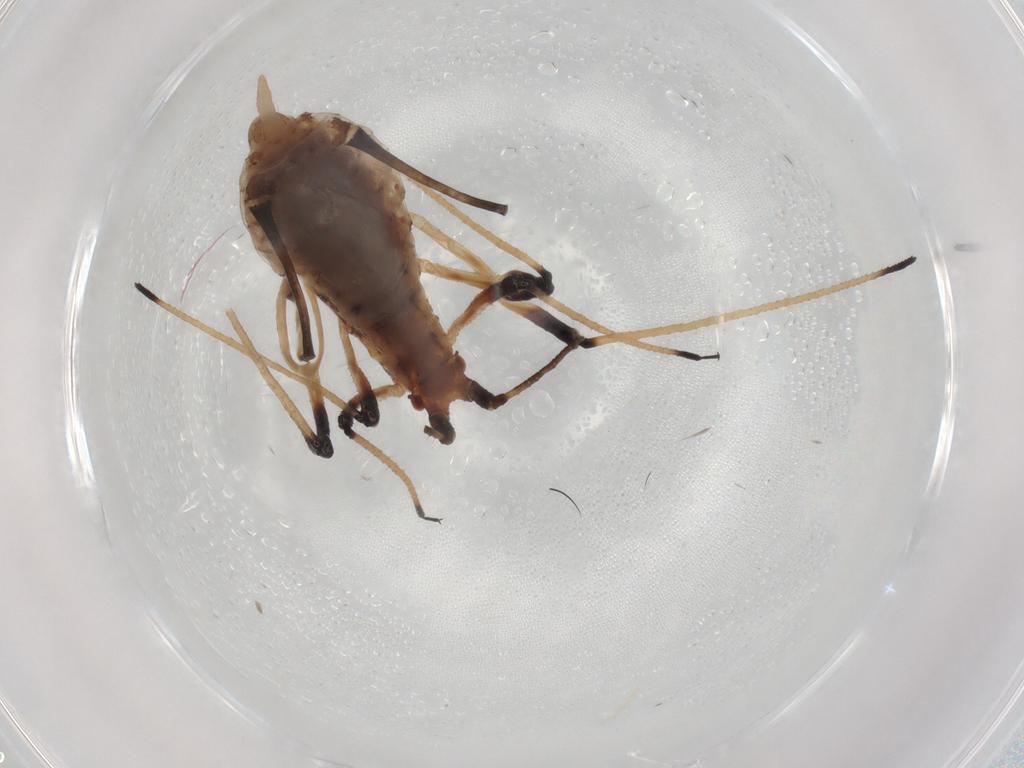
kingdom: Animalia
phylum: Arthropoda
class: Insecta
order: Hemiptera
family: Aphididae
